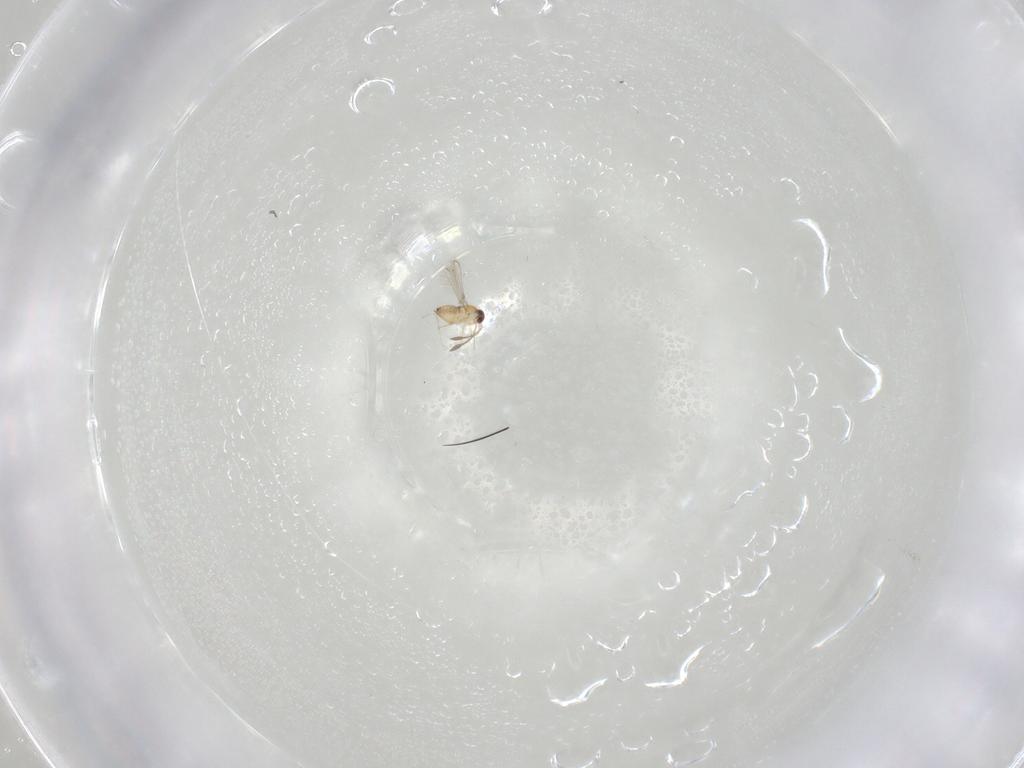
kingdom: Animalia
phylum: Arthropoda
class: Insecta
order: Hymenoptera
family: Mymaridae
